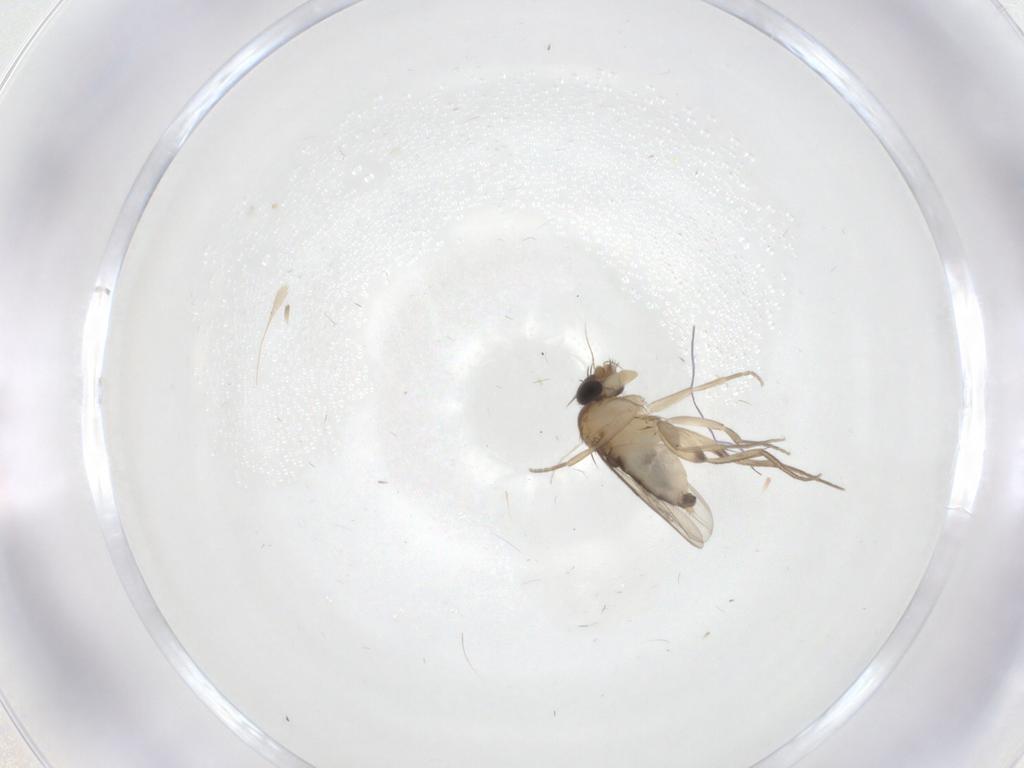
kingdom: Animalia
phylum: Arthropoda
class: Insecta
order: Diptera
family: Phoridae
